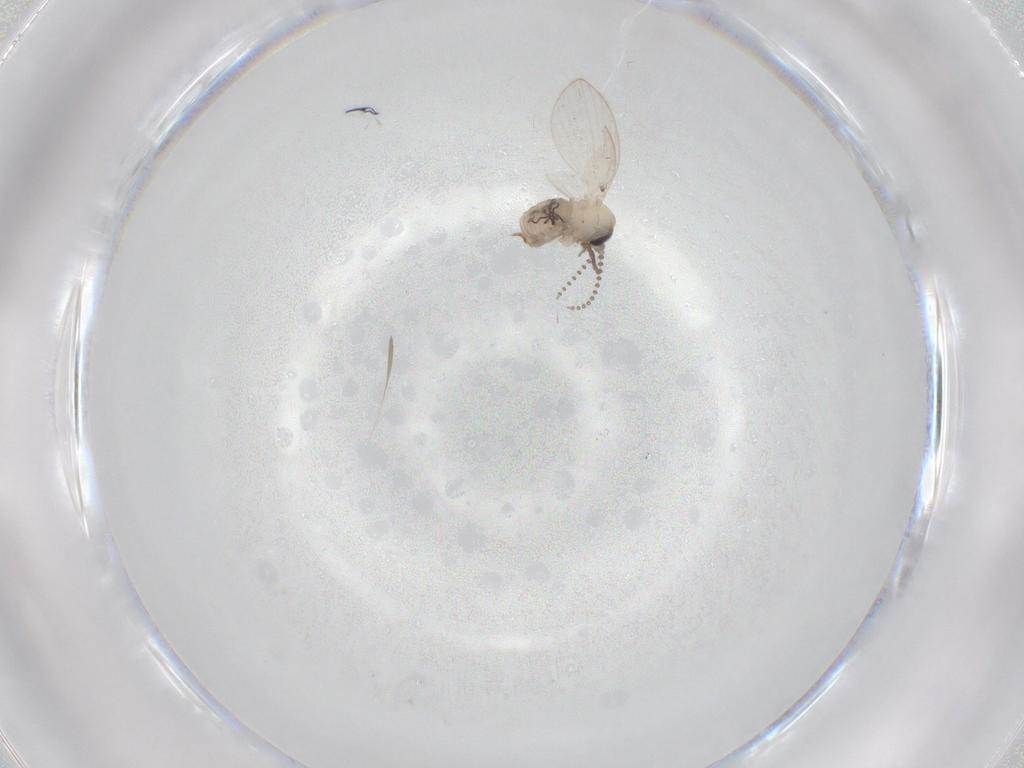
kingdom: Animalia
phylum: Arthropoda
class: Insecta
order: Diptera
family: Psychodidae
